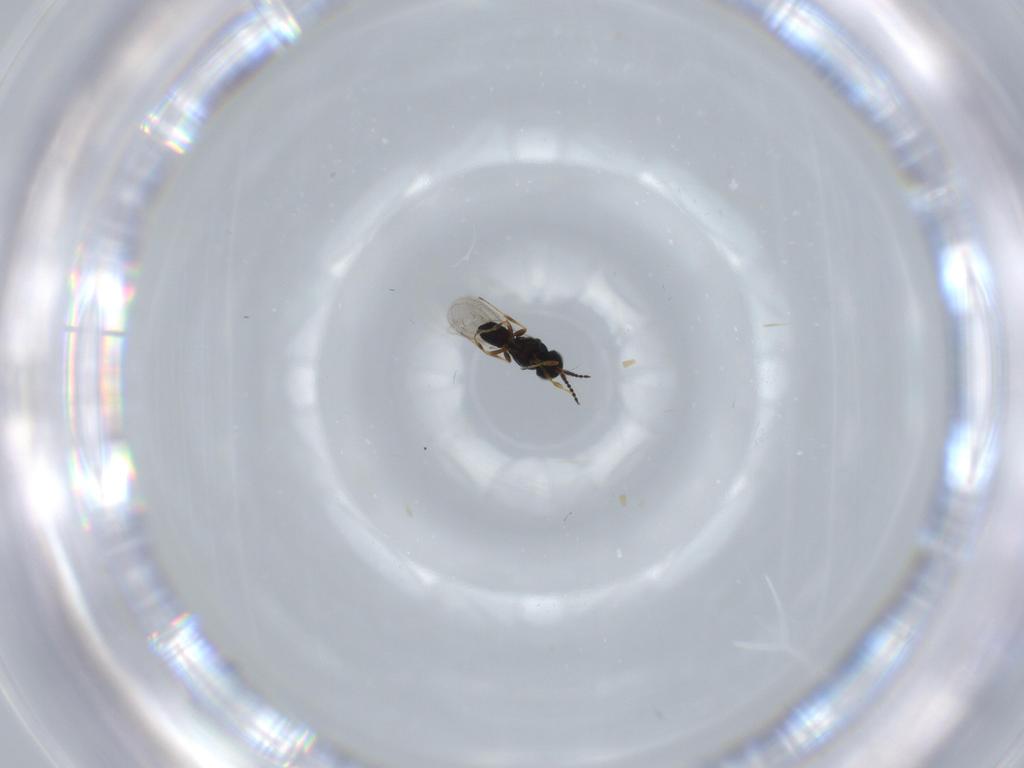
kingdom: Animalia
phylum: Arthropoda
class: Insecta
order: Hymenoptera
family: Scelionidae
